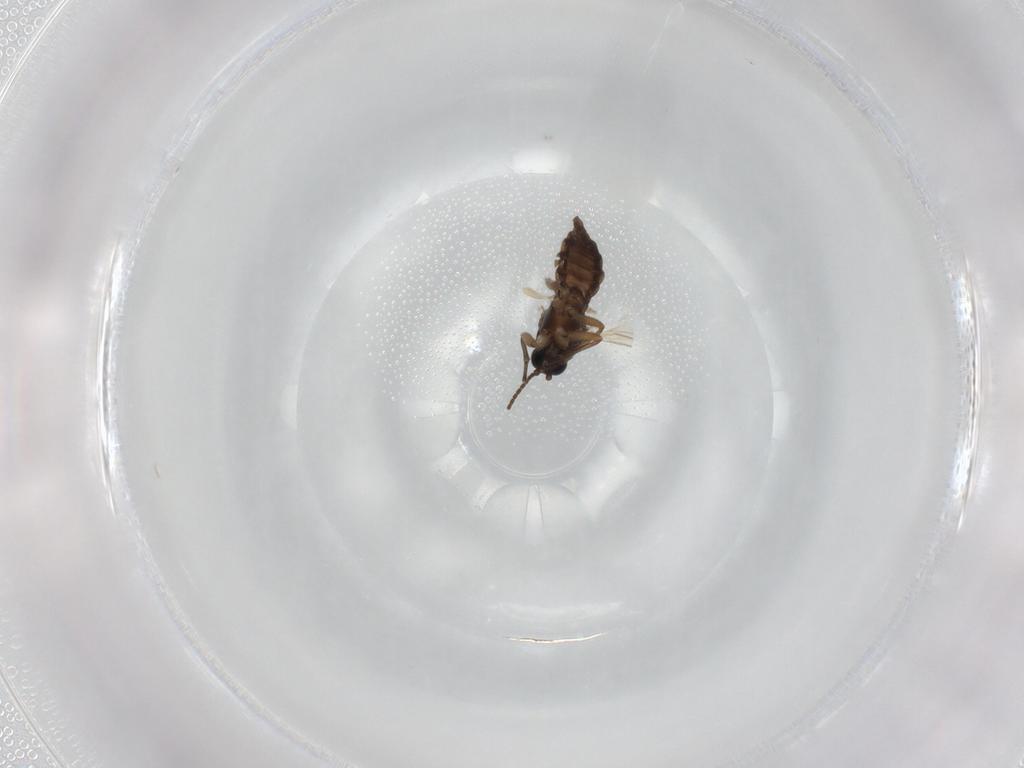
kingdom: Animalia
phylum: Arthropoda
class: Insecta
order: Diptera
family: Sciaridae
